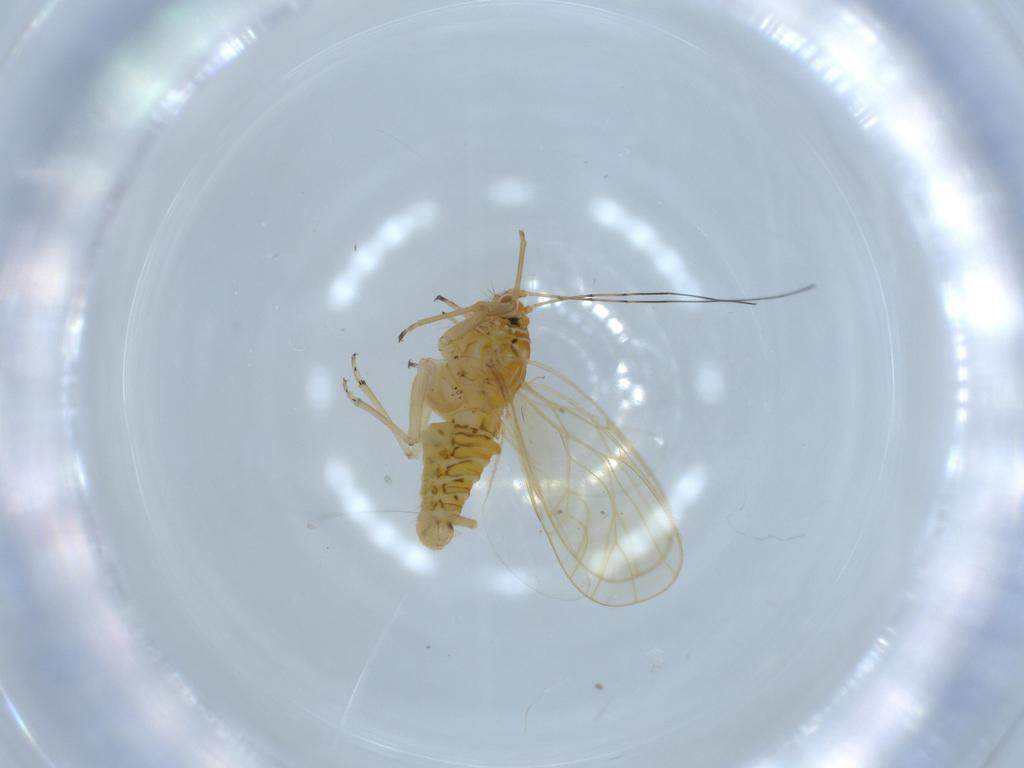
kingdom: Animalia
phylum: Arthropoda
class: Insecta
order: Hemiptera
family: Psyllidae
